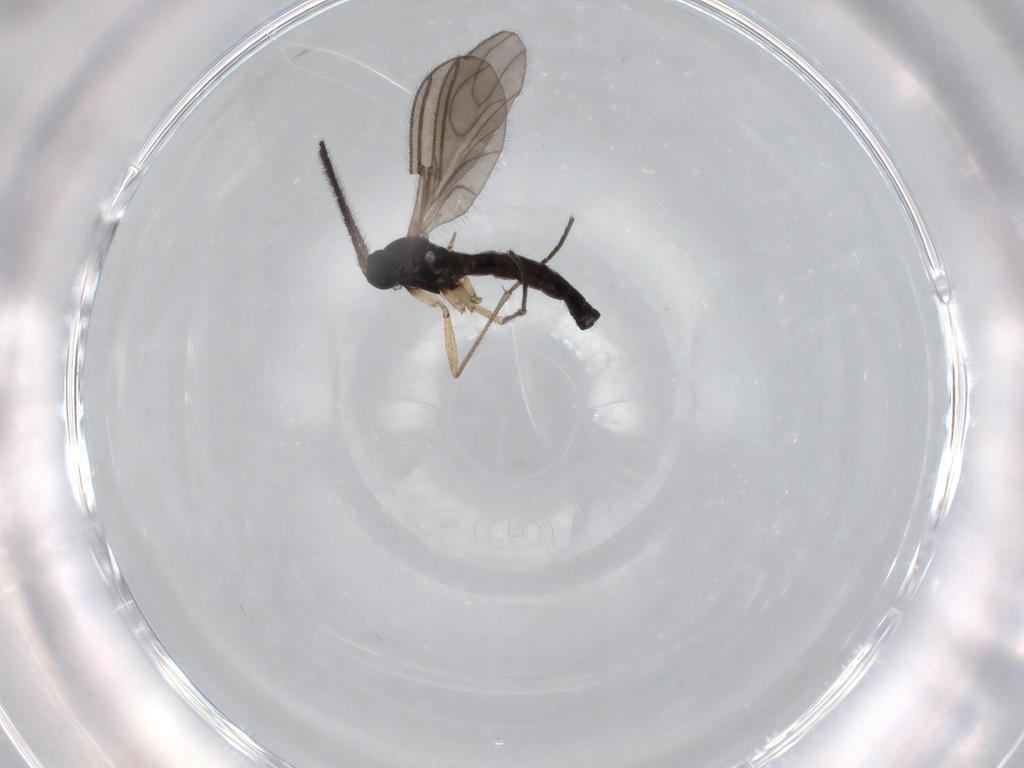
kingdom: Animalia
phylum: Arthropoda
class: Insecta
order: Diptera
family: Sciaridae
